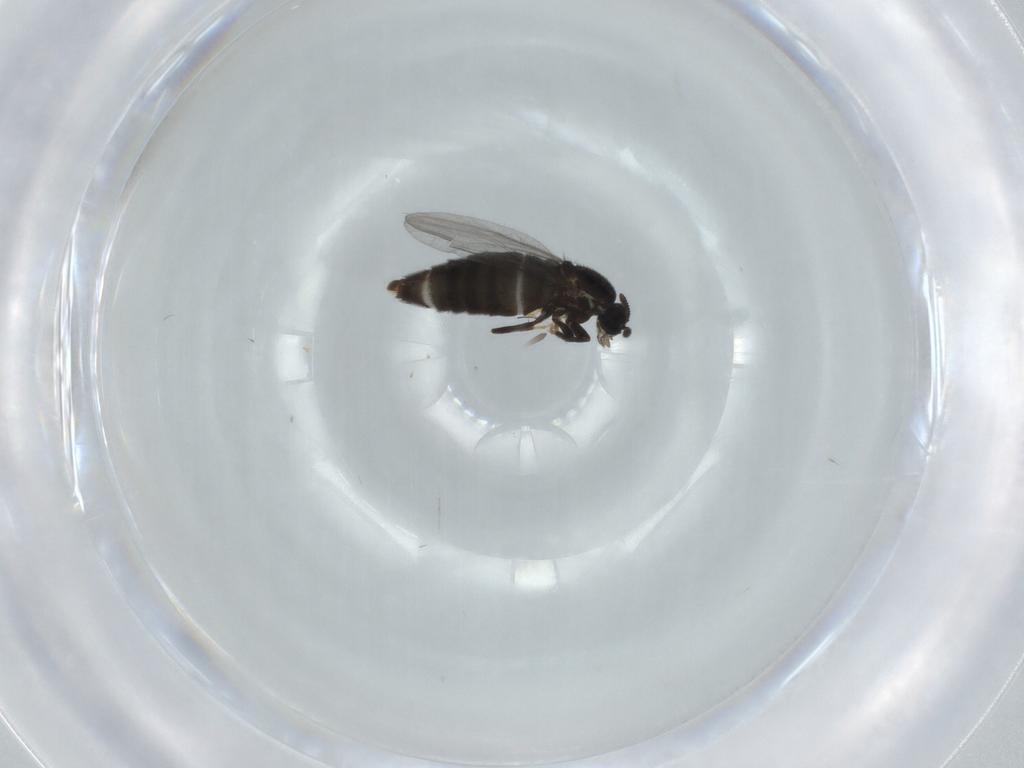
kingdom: Animalia
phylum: Arthropoda
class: Insecta
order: Diptera
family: Scatopsidae
